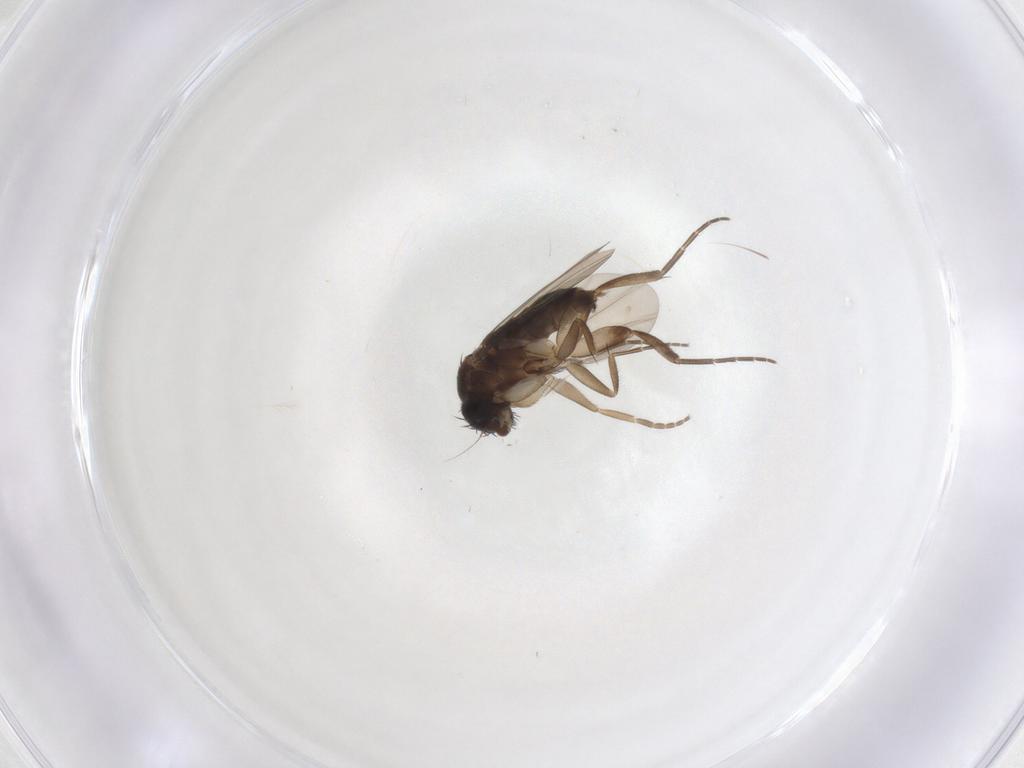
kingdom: Animalia
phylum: Arthropoda
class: Insecta
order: Diptera
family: Phoridae
